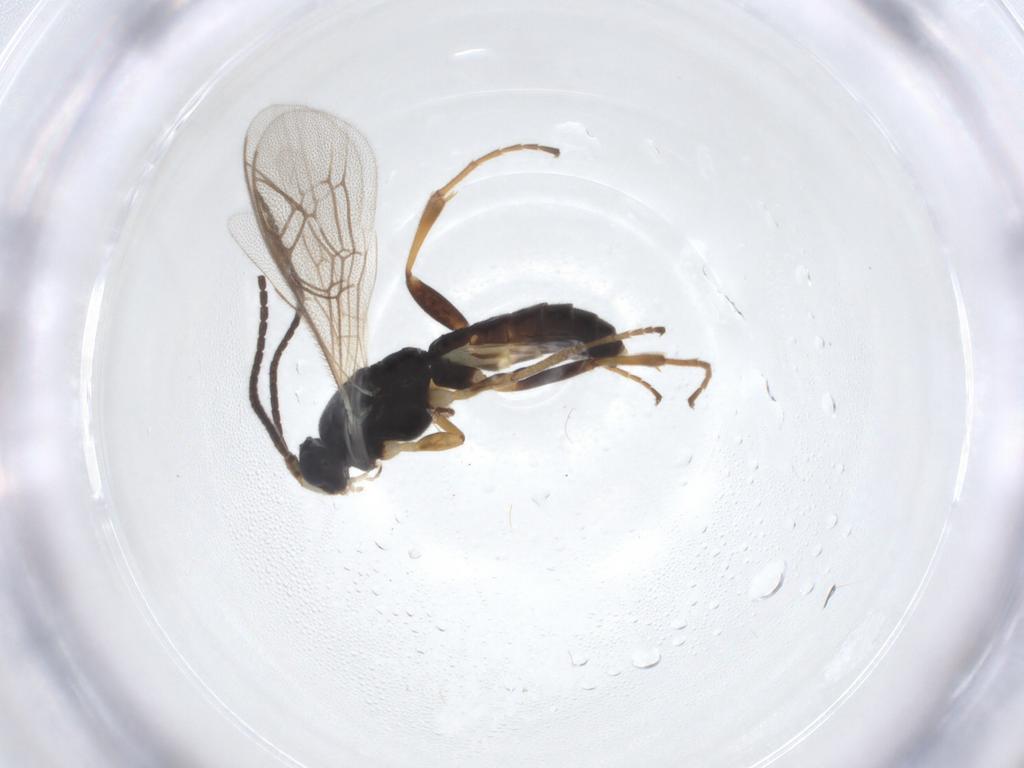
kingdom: Animalia
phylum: Arthropoda
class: Insecta
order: Hymenoptera
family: Ichneumonidae
